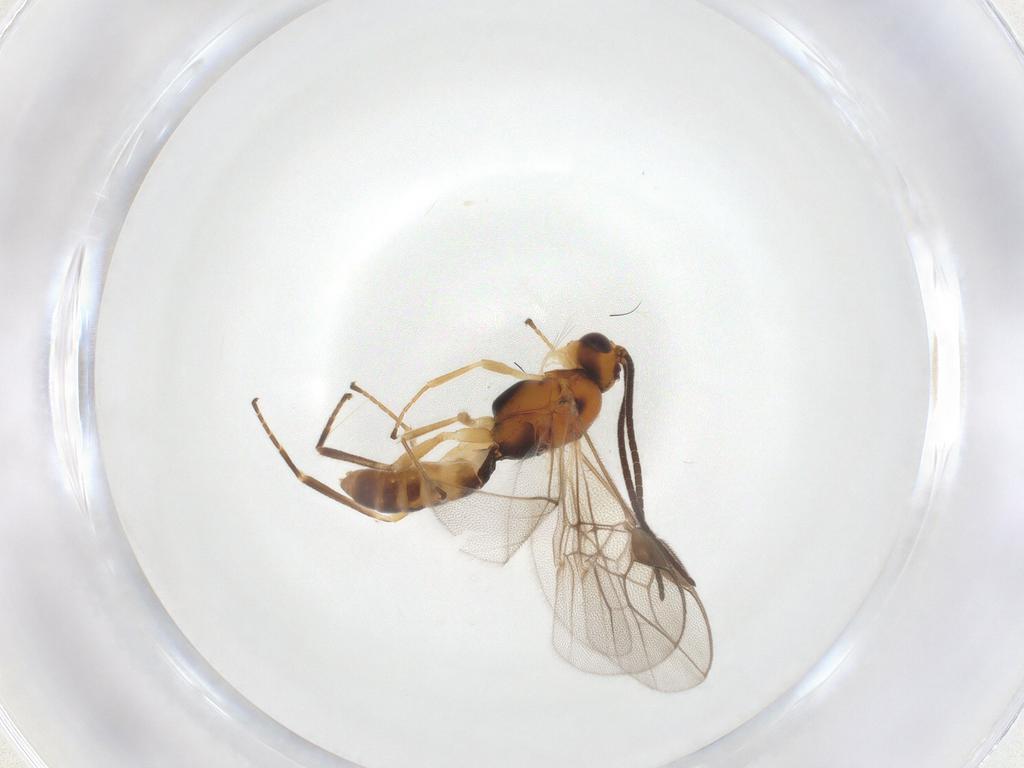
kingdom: Animalia
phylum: Arthropoda
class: Insecta
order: Hymenoptera
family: Braconidae
